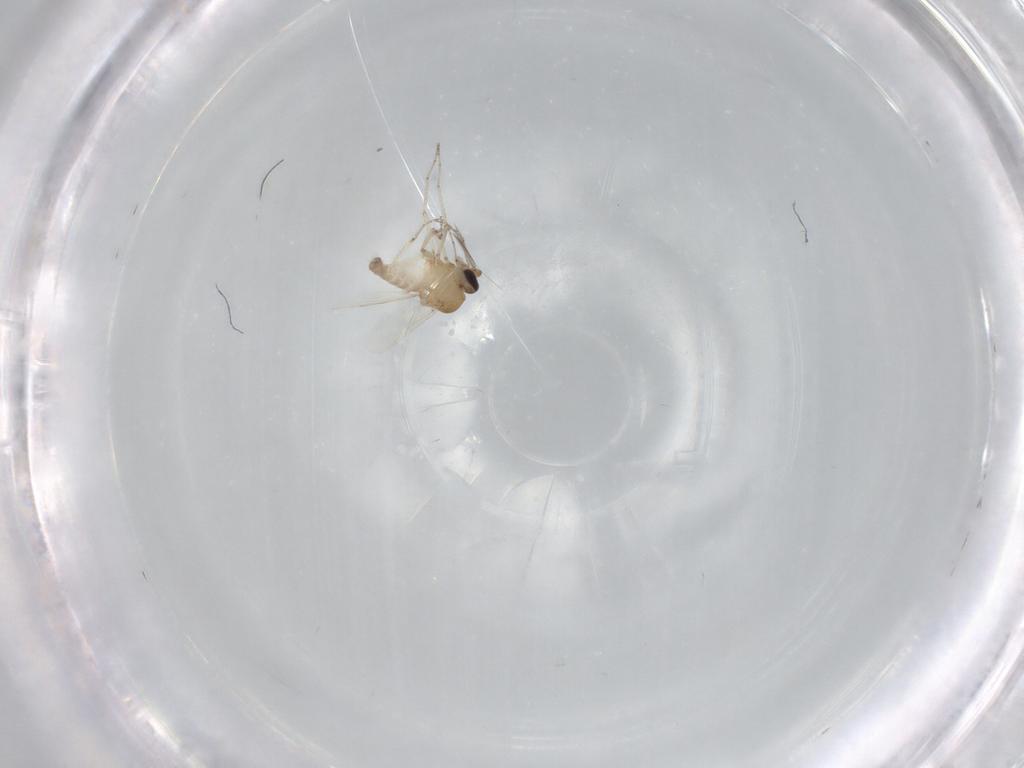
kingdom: Animalia
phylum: Arthropoda
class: Insecta
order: Diptera
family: Ceratopogonidae
